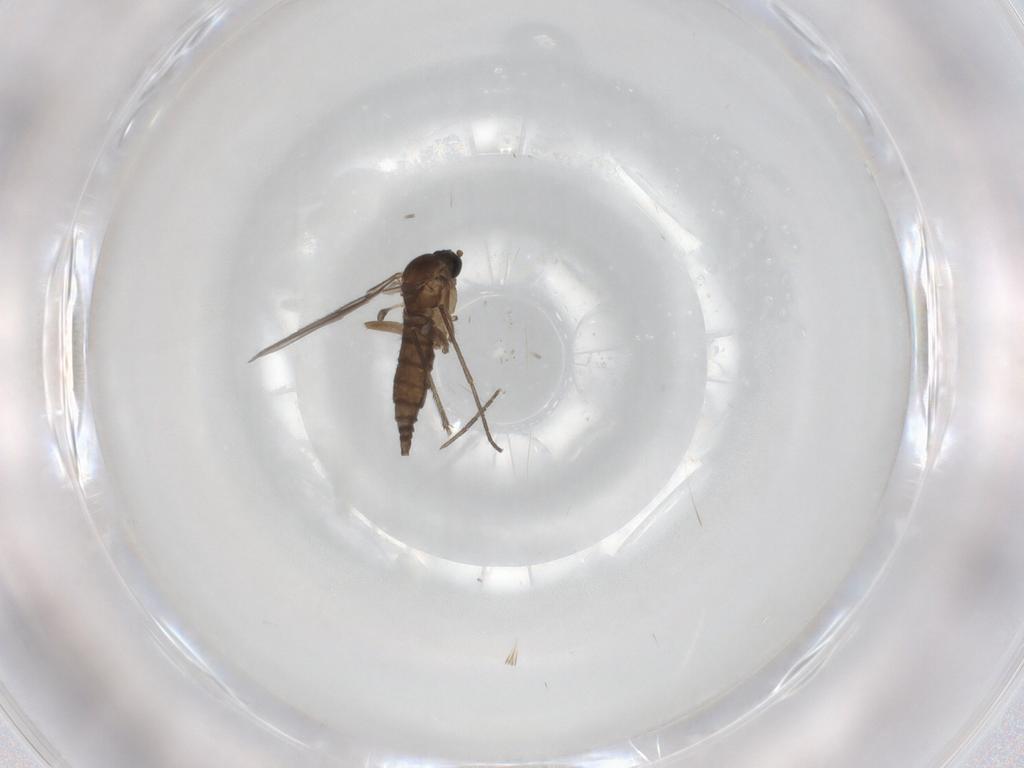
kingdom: Animalia
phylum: Arthropoda
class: Insecta
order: Diptera
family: Sciaridae
